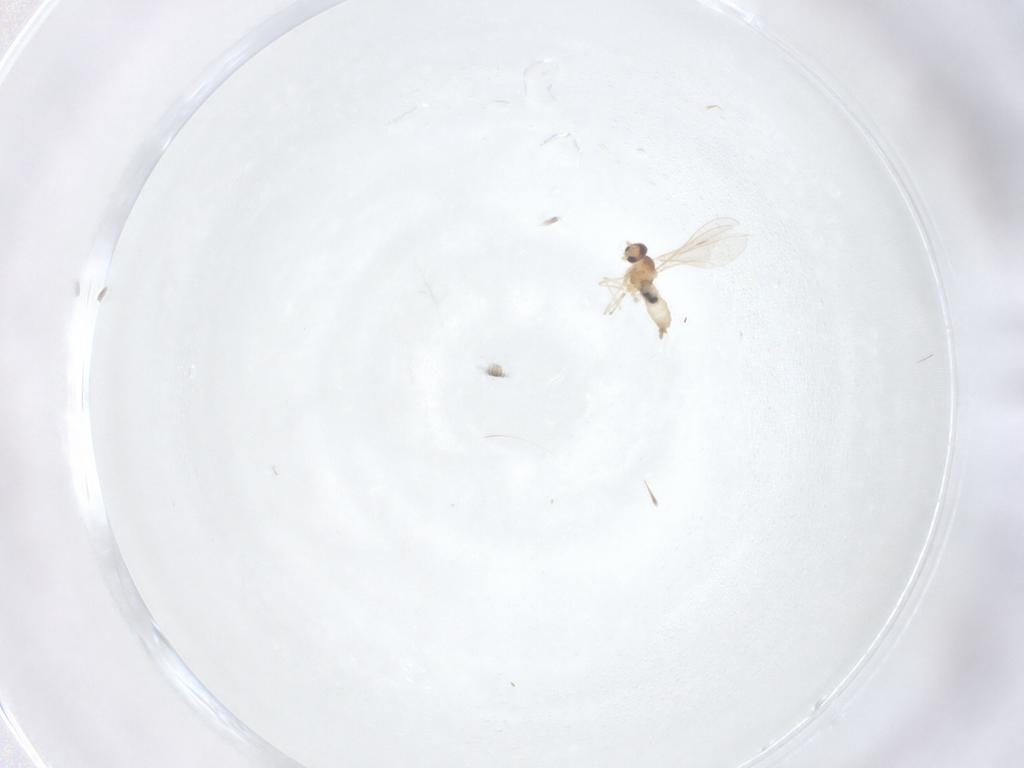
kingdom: Animalia
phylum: Arthropoda
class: Insecta
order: Diptera
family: Cecidomyiidae
